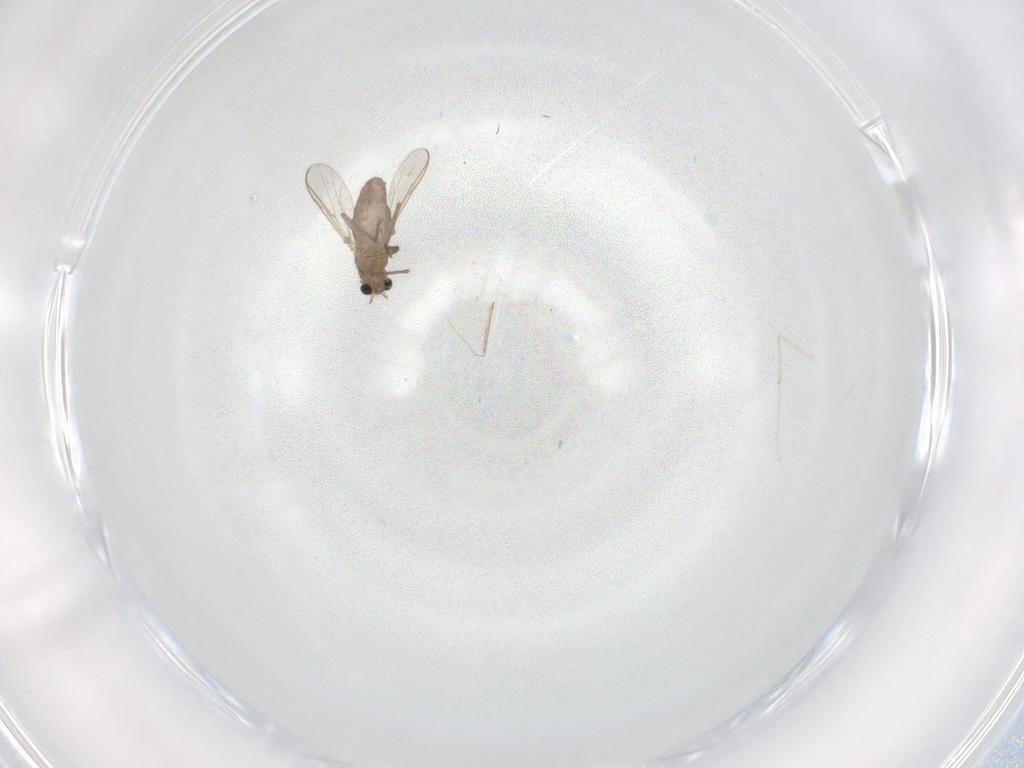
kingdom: Animalia
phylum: Arthropoda
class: Insecta
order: Diptera
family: Chironomidae
